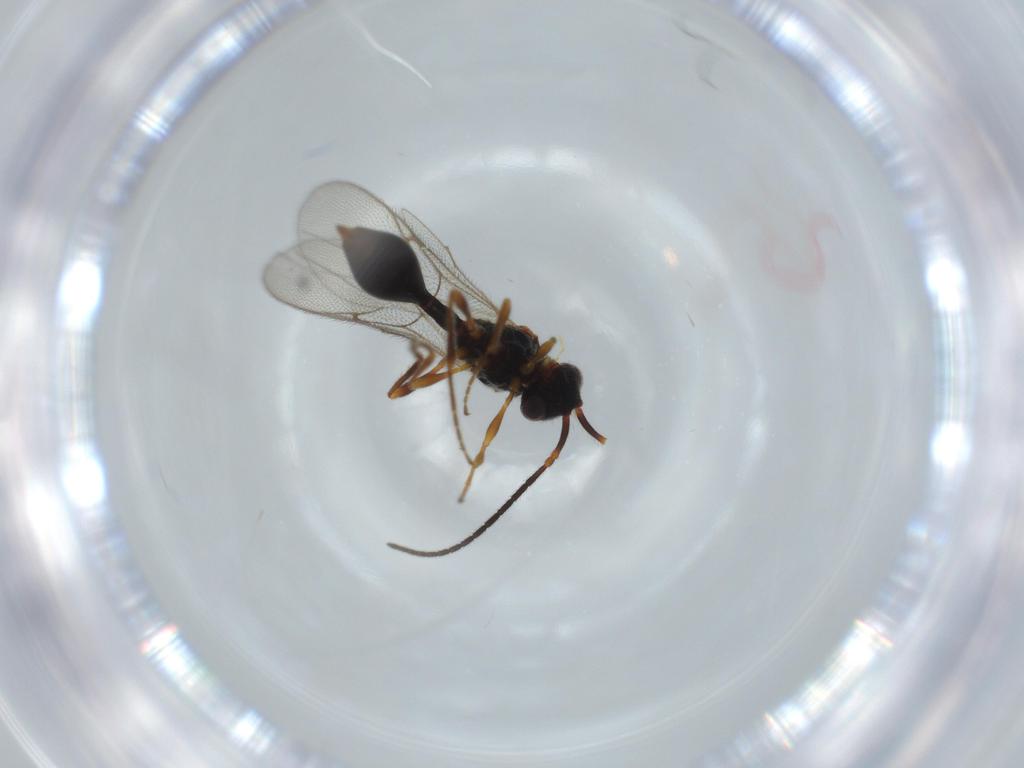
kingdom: Animalia
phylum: Arthropoda
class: Insecta
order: Hymenoptera
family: Diapriidae
